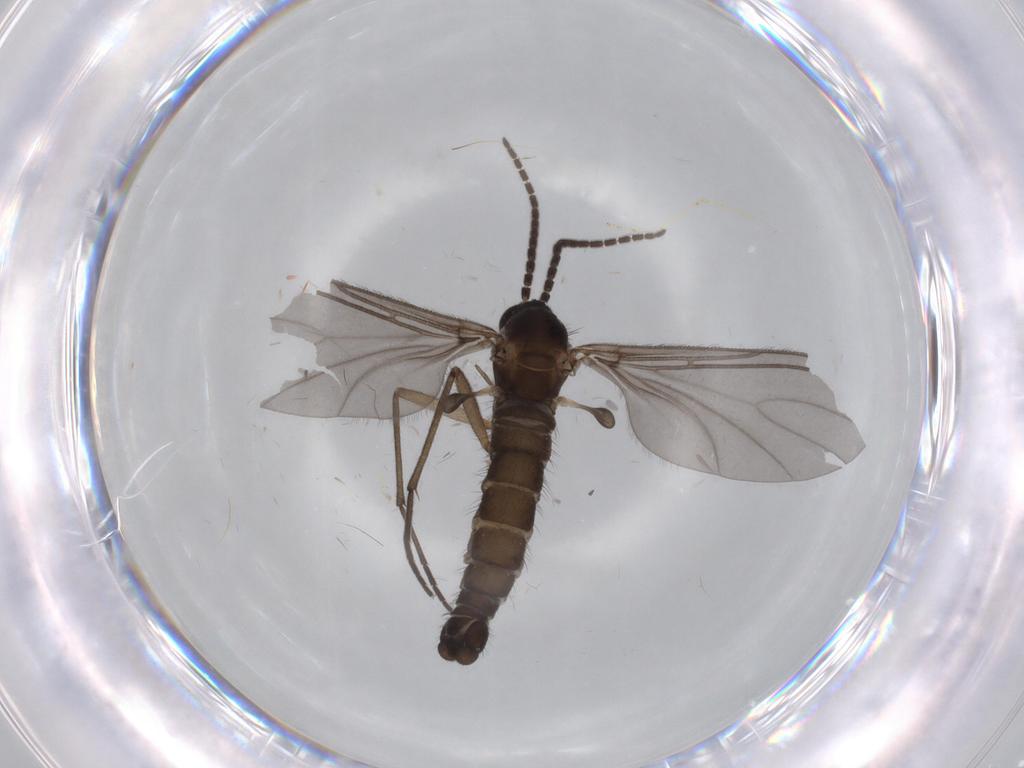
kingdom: Animalia
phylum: Arthropoda
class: Insecta
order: Diptera
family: Sciaridae
